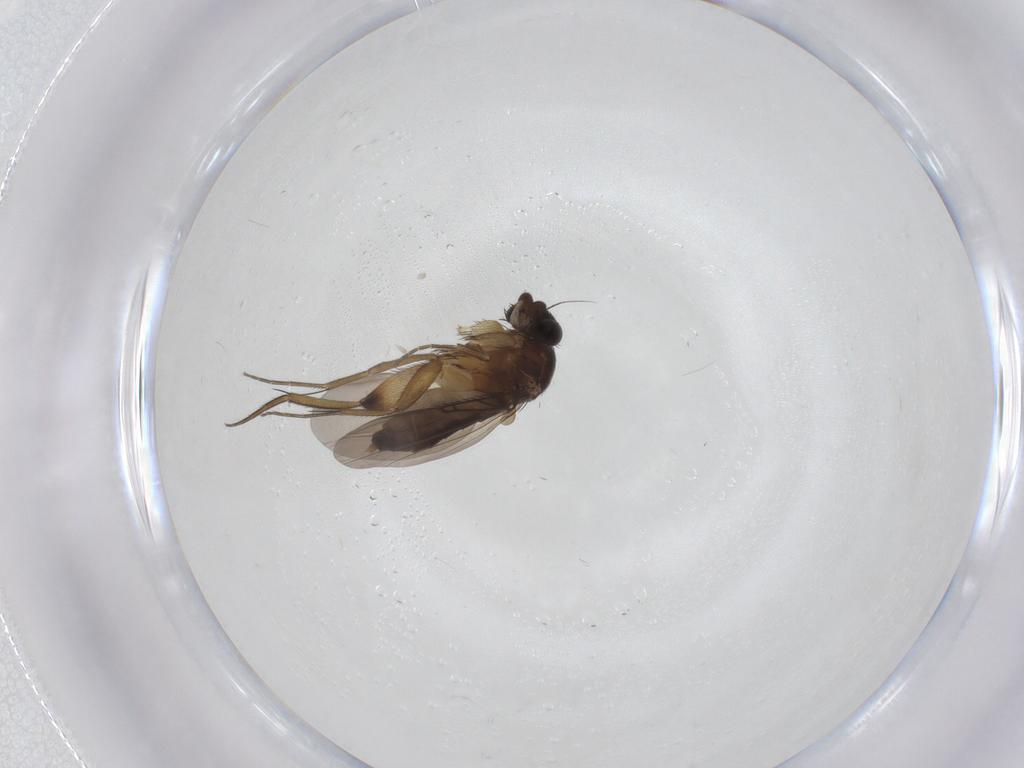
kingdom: Animalia
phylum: Arthropoda
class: Insecta
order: Diptera
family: Phoridae
